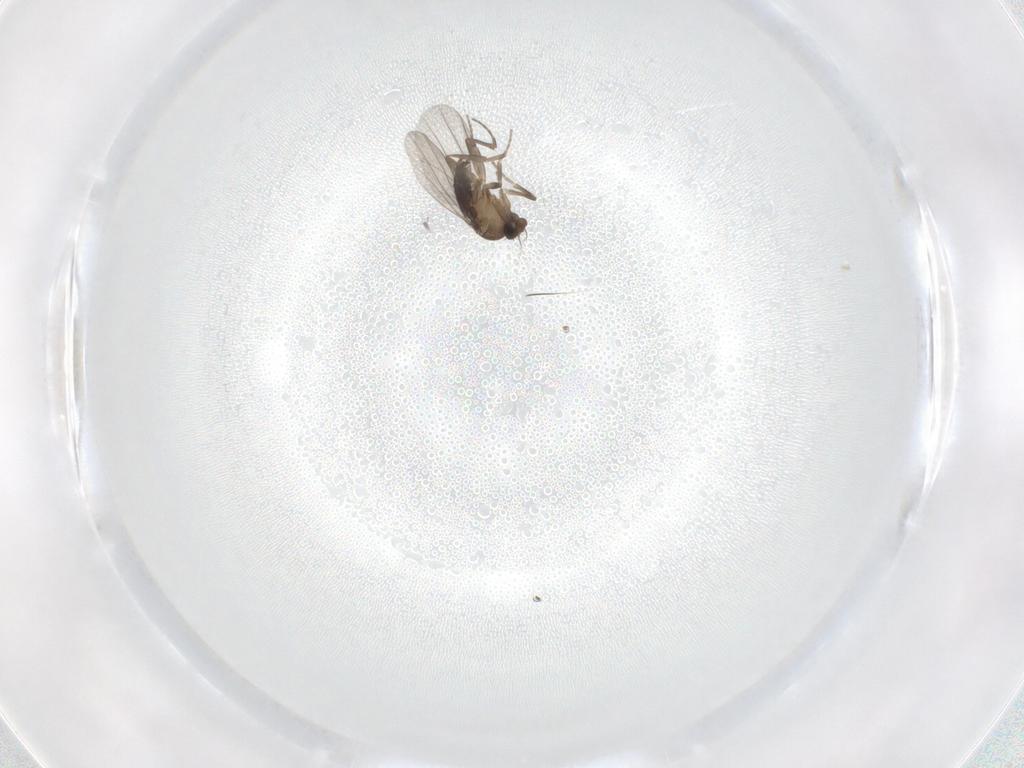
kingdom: Animalia
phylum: Arthropoda
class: Insecta
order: Diptera
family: Phoridae
